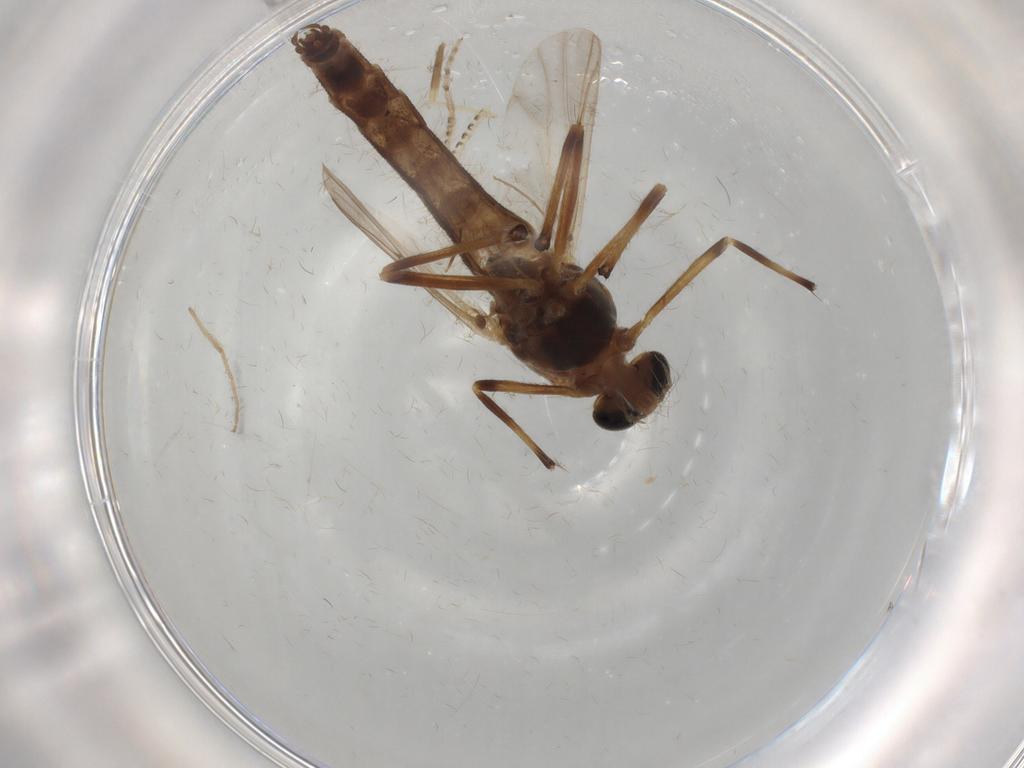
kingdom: Animalia
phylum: Arthropoda
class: Insecta
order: Diptera
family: Chironomidae
